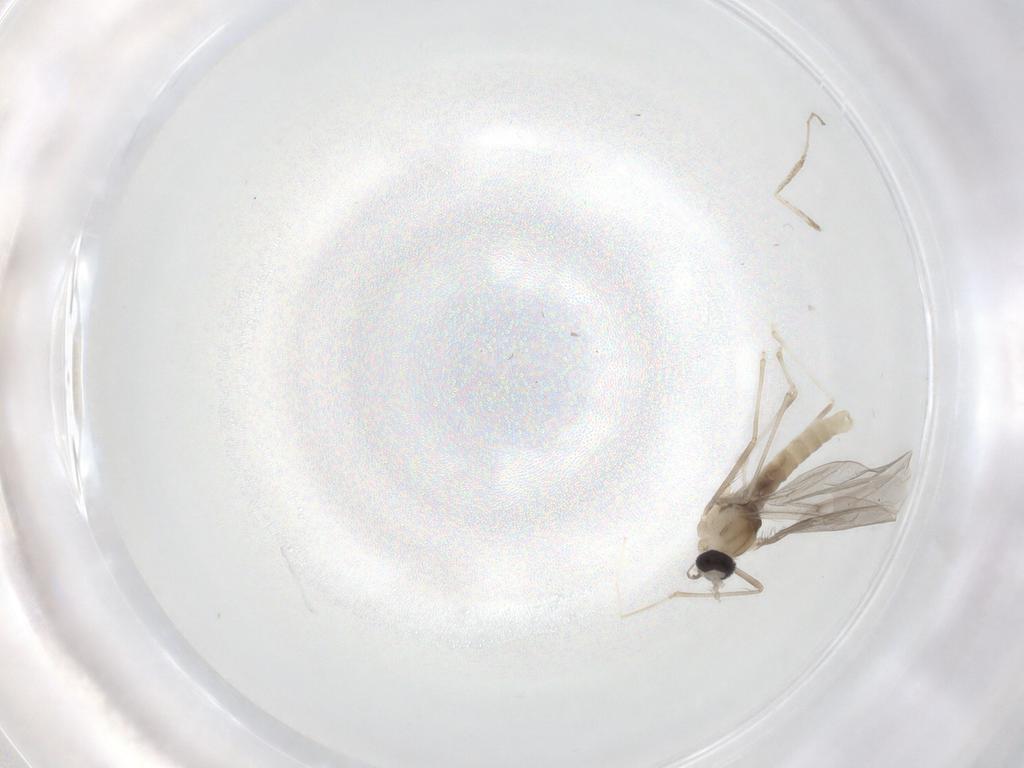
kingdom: Animalia
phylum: Arthropoda
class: Insecta
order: Diptera
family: Cecidomyiidae
